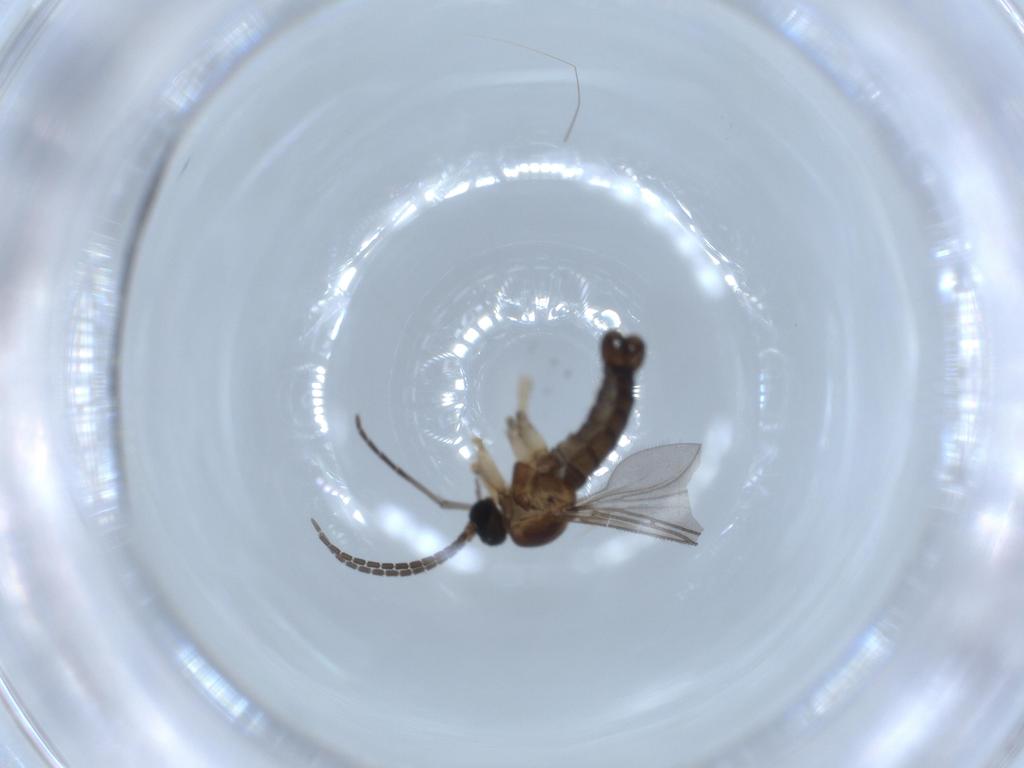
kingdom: Animalia
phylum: Arthropoda
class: Insecta
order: Diptera
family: Sciaridae
